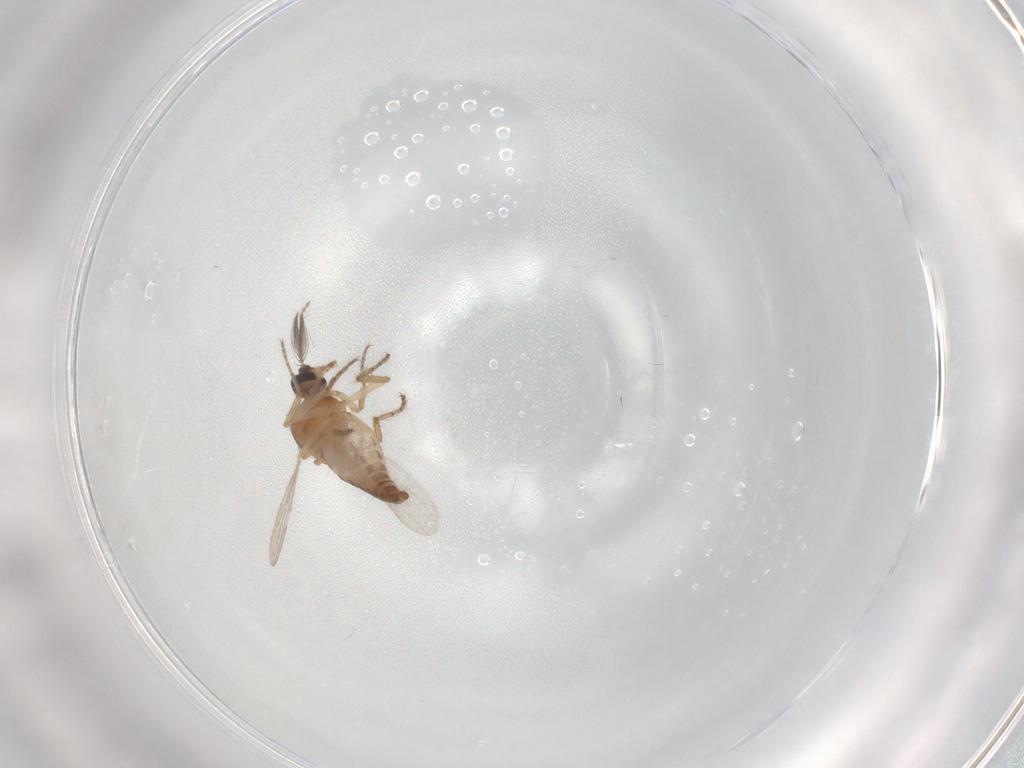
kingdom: Animalia
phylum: Arthropoda
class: Insecta
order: Diptera
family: Ceratopogonidae
